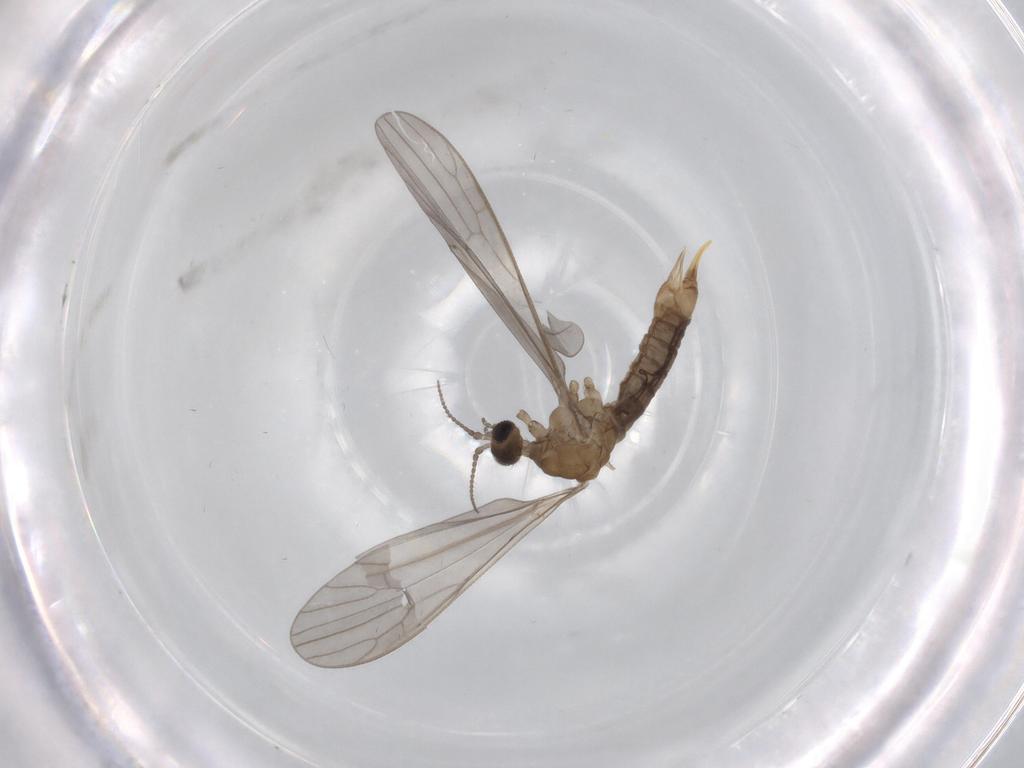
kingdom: Animalia
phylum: Arthropoda
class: Insecta
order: Diptera
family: Limoniidae
